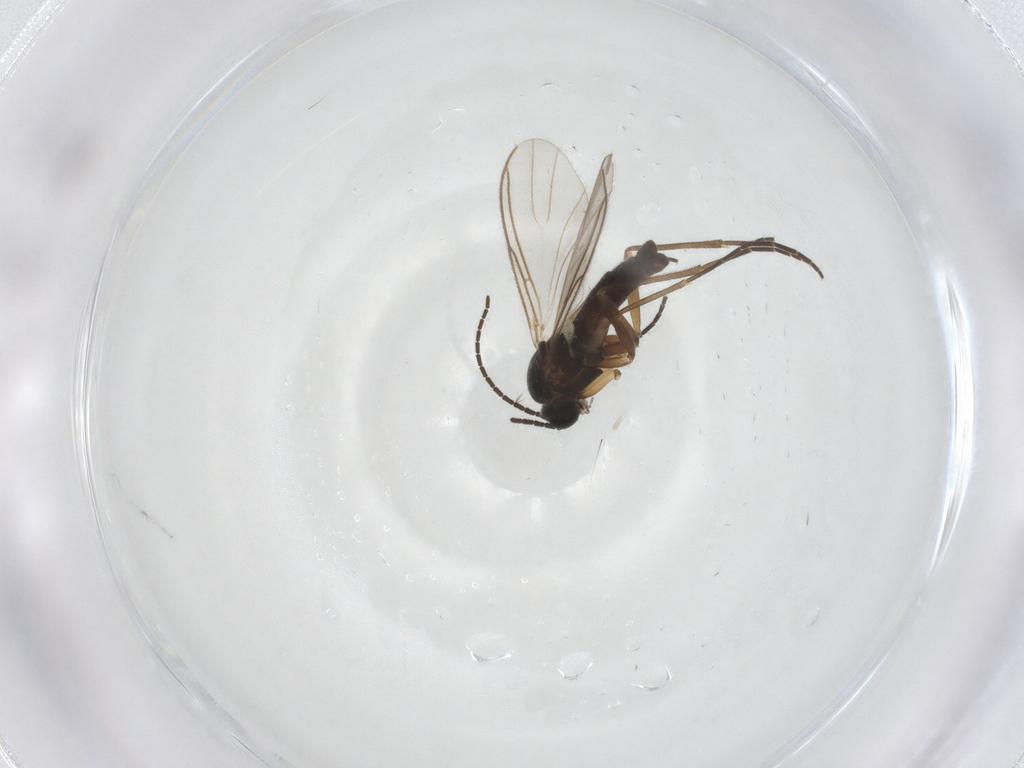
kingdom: Animalia
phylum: Arthropoda
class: Insecta
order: Diptera
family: Sciaridae
